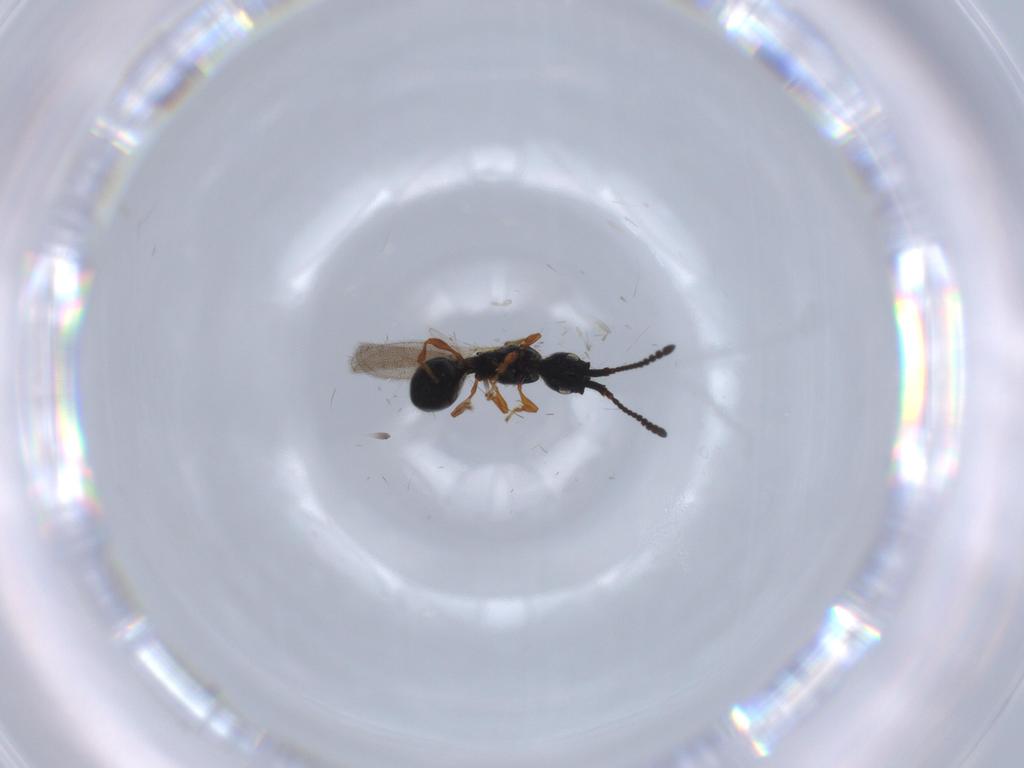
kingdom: Animalia
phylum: Arthropoda
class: Insecta
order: Hymenoptera
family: Diapriidae
